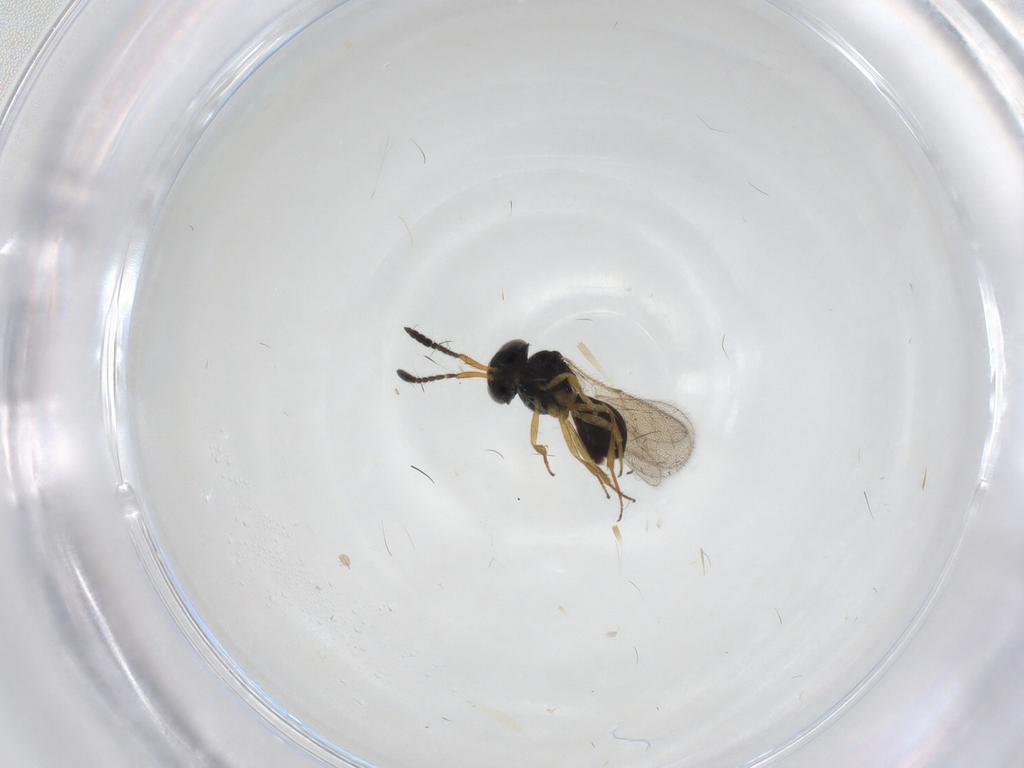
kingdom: Animalia
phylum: Arthropoda
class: Insecta
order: Hymenoptera
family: Scelionidae
